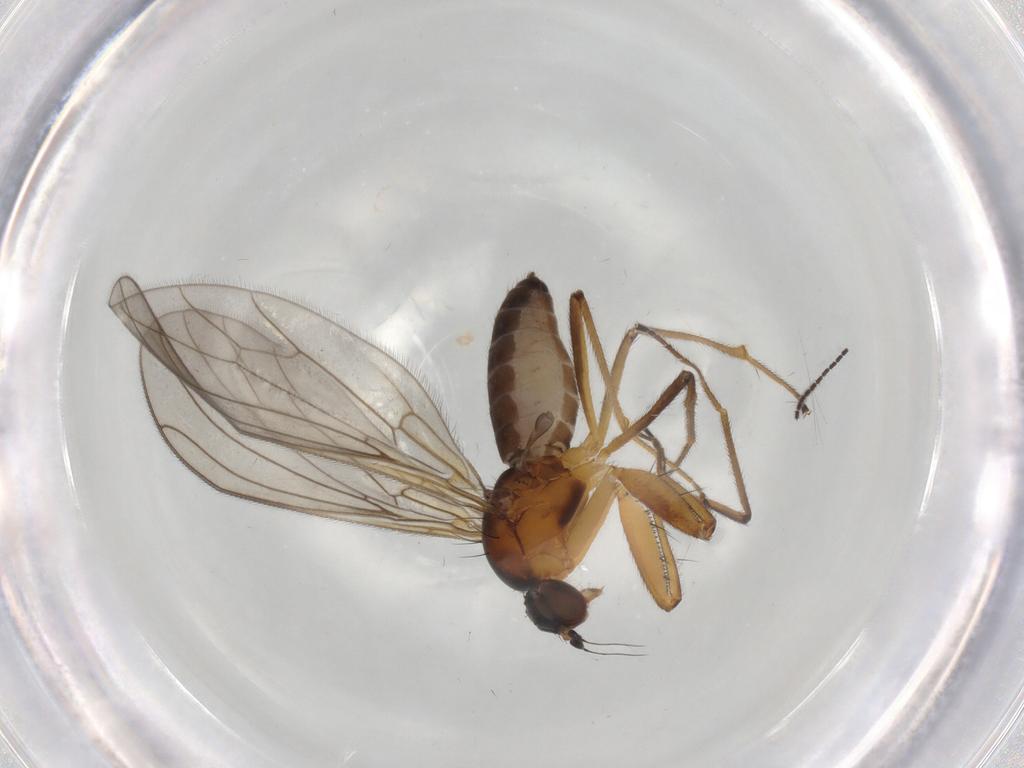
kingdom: Animalia
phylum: Arthropoda
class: Insecta
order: Diptera
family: Empididae
